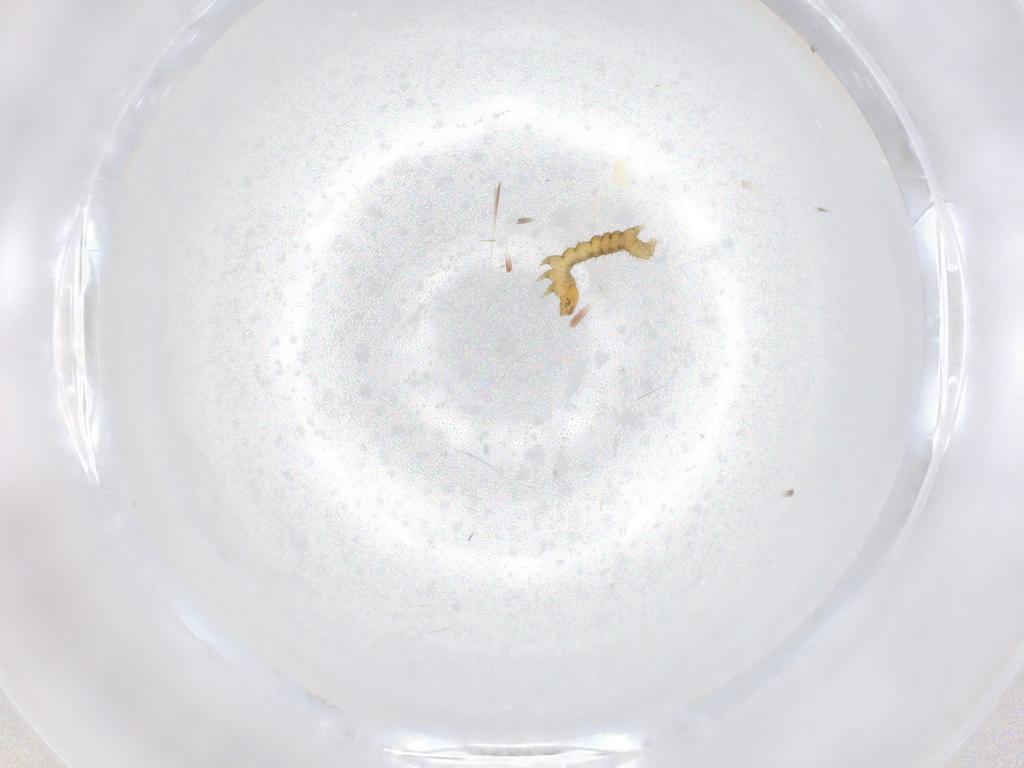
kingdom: Animalia
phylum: Arthropoda
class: Insecta
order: Lepidoptera
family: Geometridae
